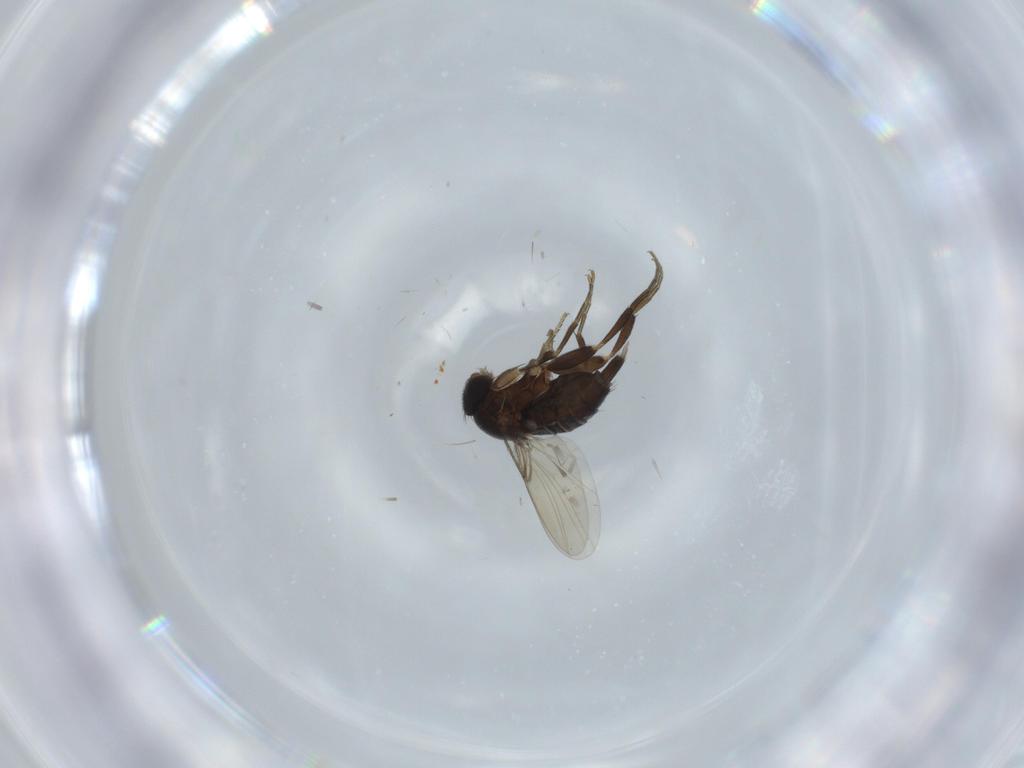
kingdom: Animalia
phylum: Arthropoda
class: Insecta
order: Diptera
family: Phoridae
